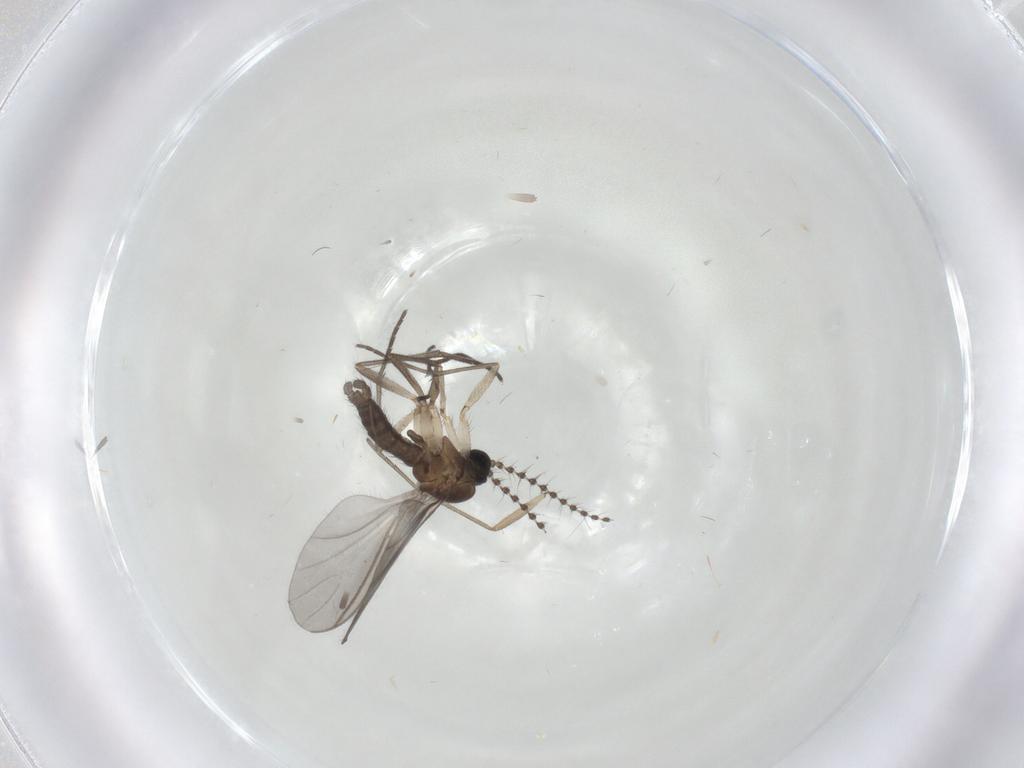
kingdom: Animalia
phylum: Arthropoda
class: Insecta
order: Diptera
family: Sciaridae
